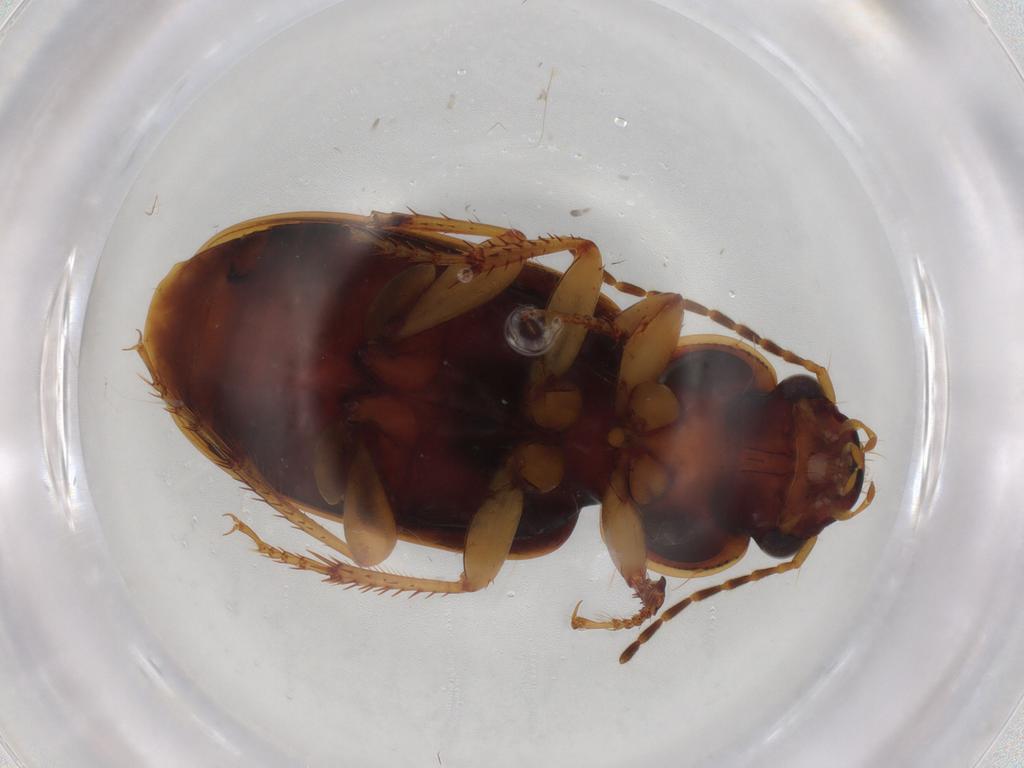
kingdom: Animalia
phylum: Arthropoda
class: Insecta
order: Coleoptera
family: Carabidae
